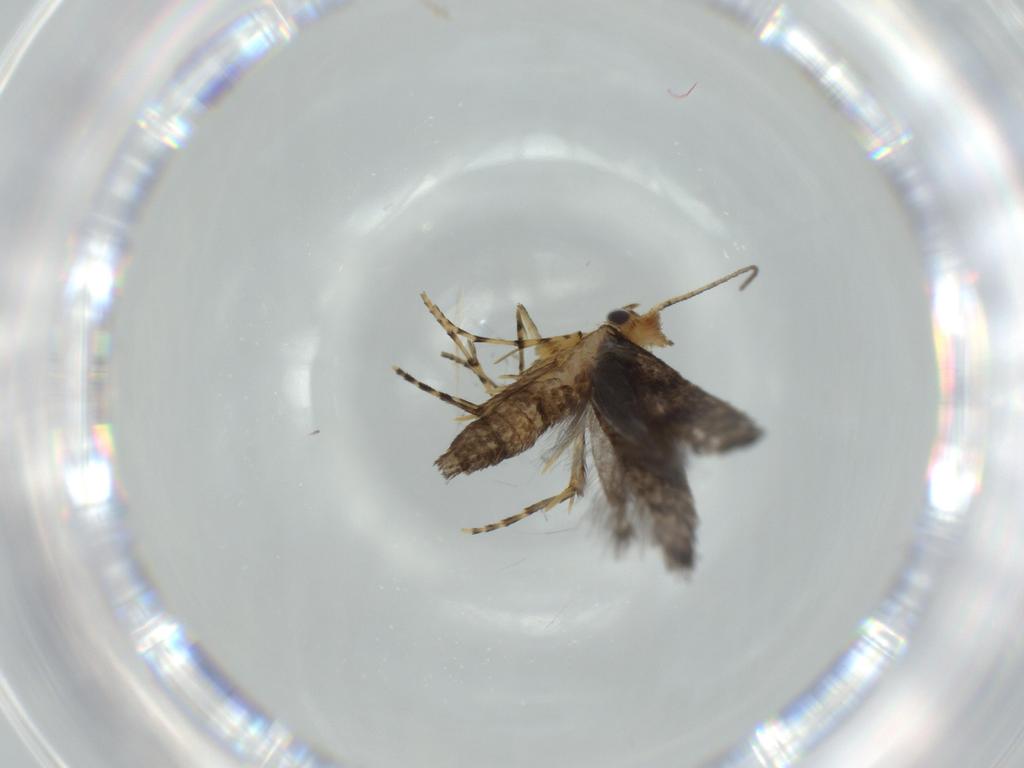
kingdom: Animalia
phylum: Arthropoda
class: Insecta
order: Lepidoptera
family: Argyresthiidae
